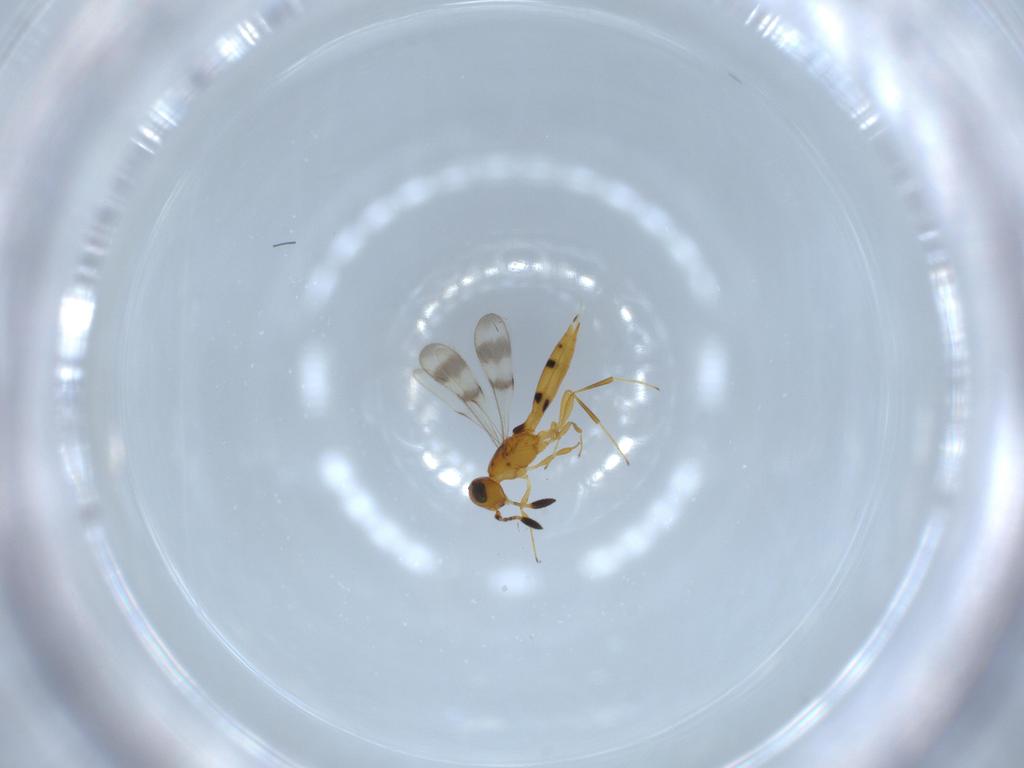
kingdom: Animalia
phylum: Arthropoda
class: Insecta
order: Hymenoptera
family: Scelionidae
